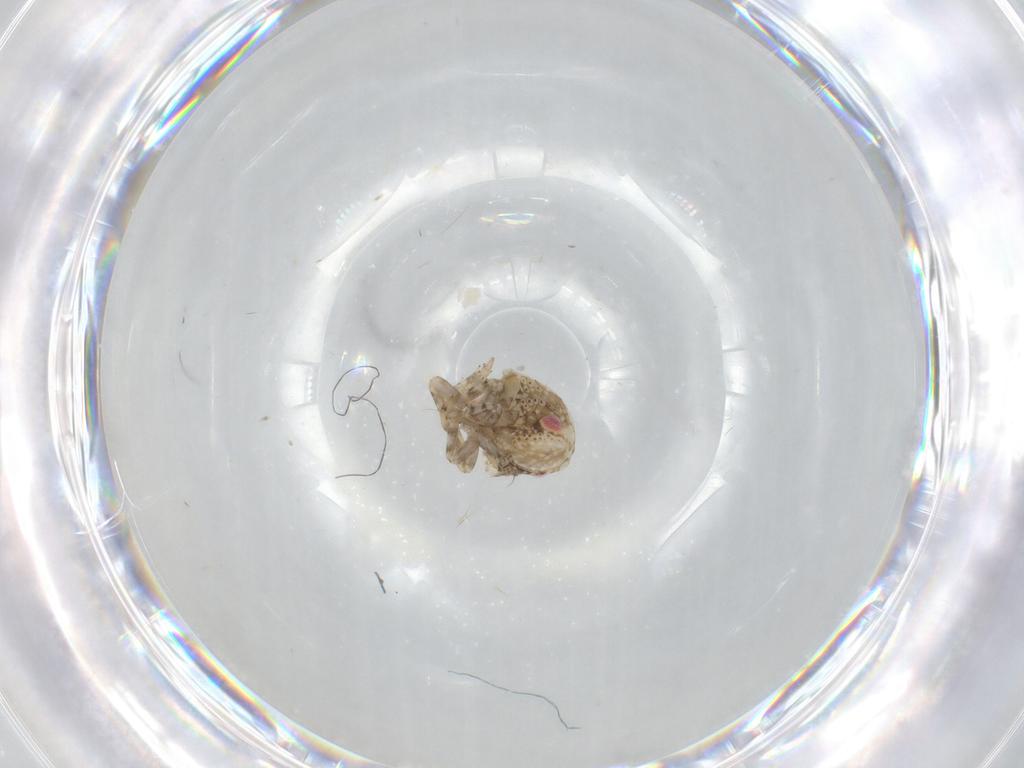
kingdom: Animalia
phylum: Arthropoda
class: Insecta
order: Hemiptera
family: Acanaloniidae
